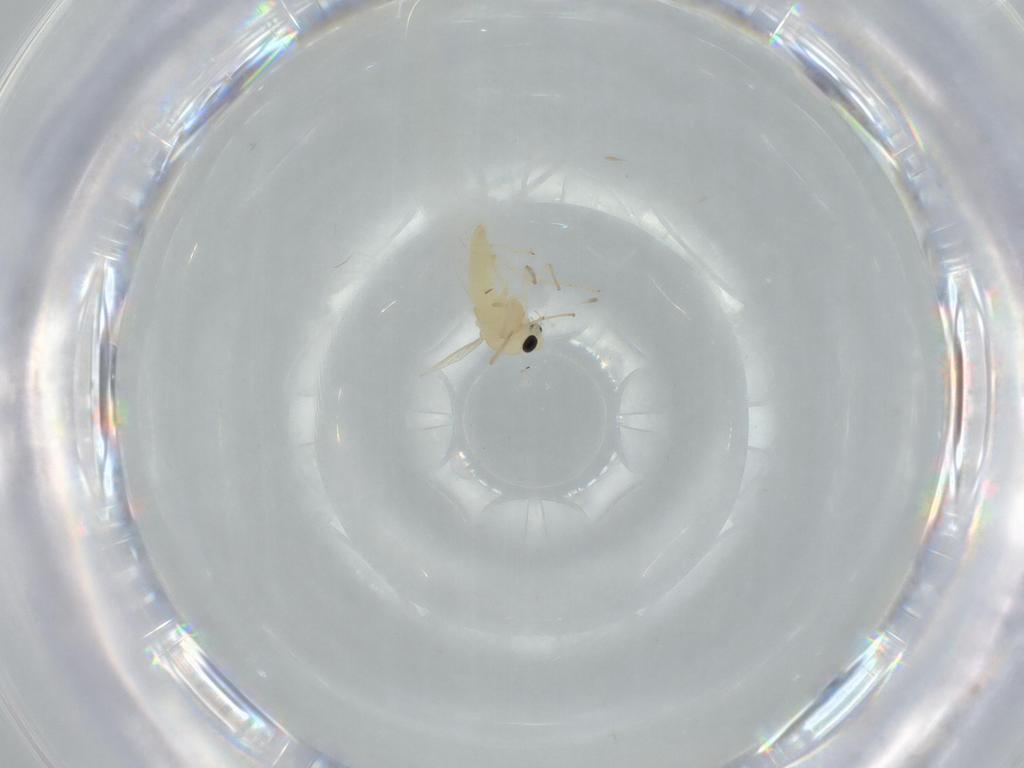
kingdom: Animalia
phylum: Arthropoda
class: Insecta
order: Diptera
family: Chironomidae
